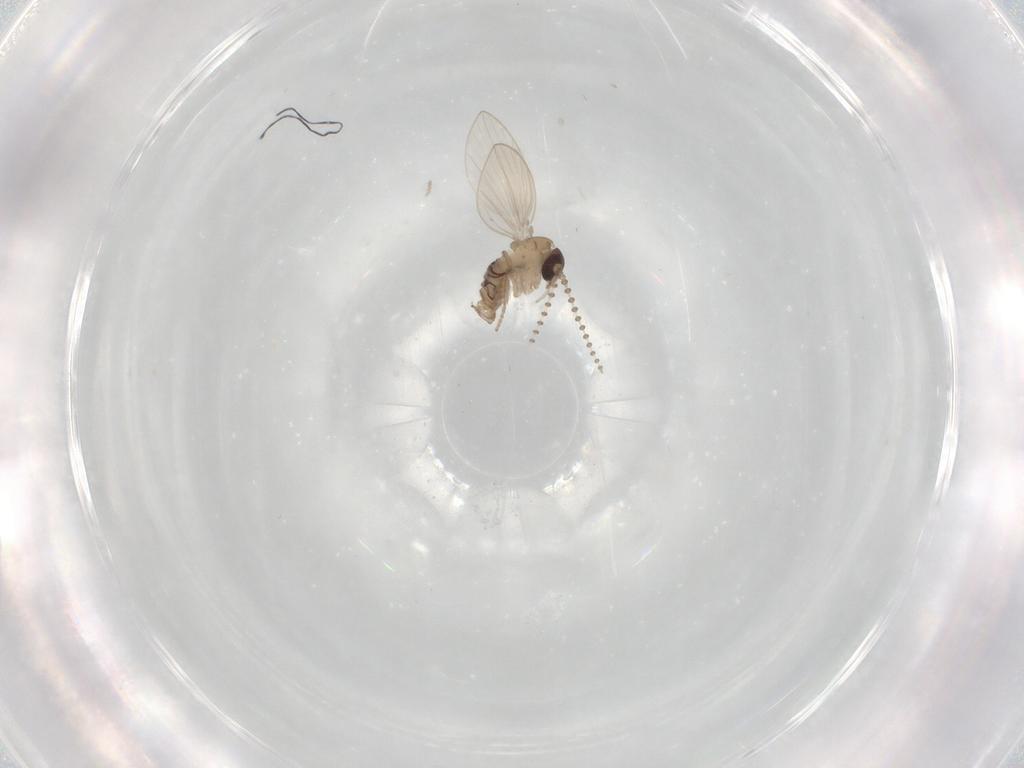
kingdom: Animalia
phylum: Arthropoda
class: Insecta
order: Diptera
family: Psychodidae
